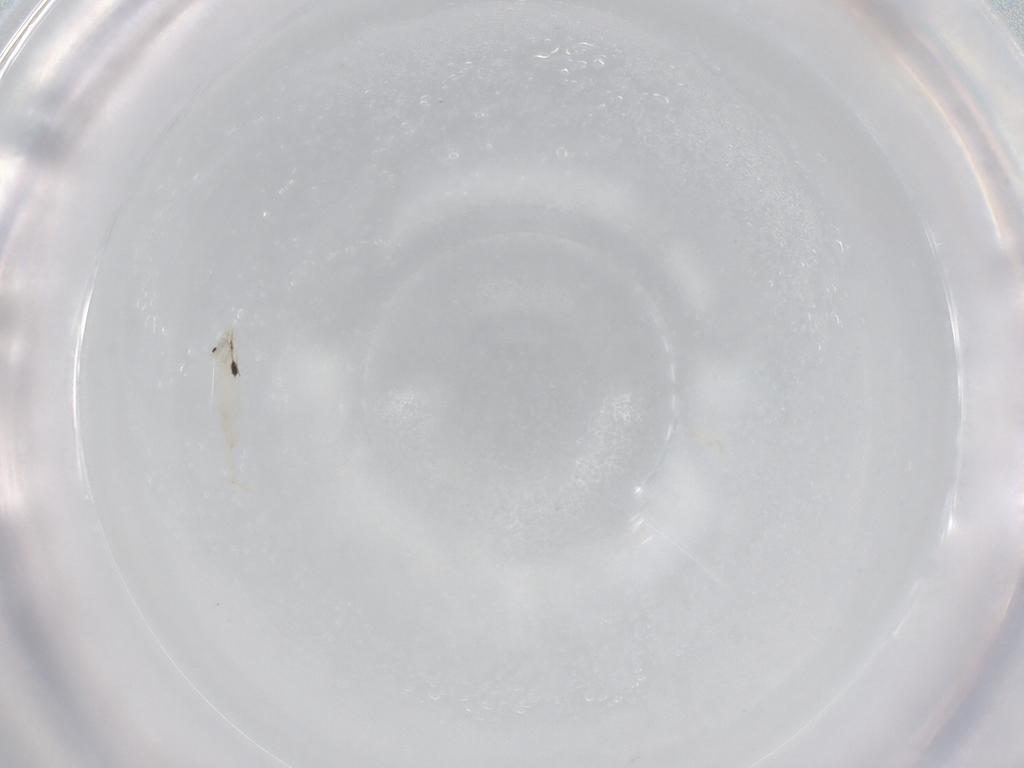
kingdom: Animalia
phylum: Arthropoda
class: Collembola
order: Entomobryomorpha
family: Entomobryidae
